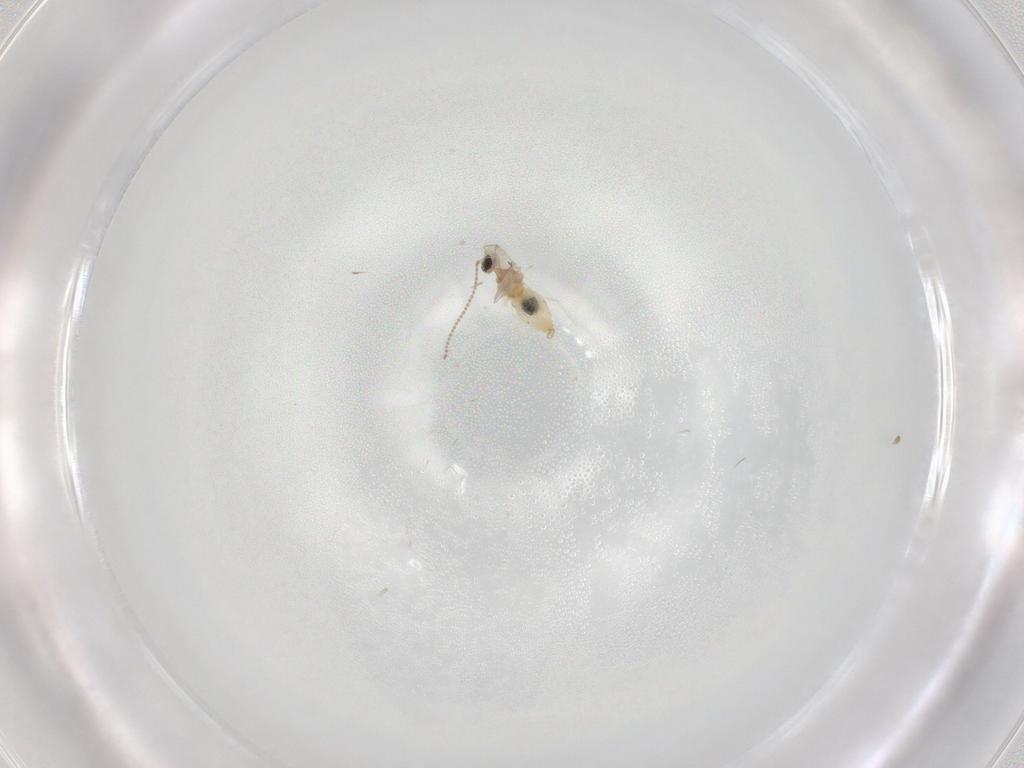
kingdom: Animalia
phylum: Arthropoda
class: Insecta
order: Diptera
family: Cecidomyiidae
